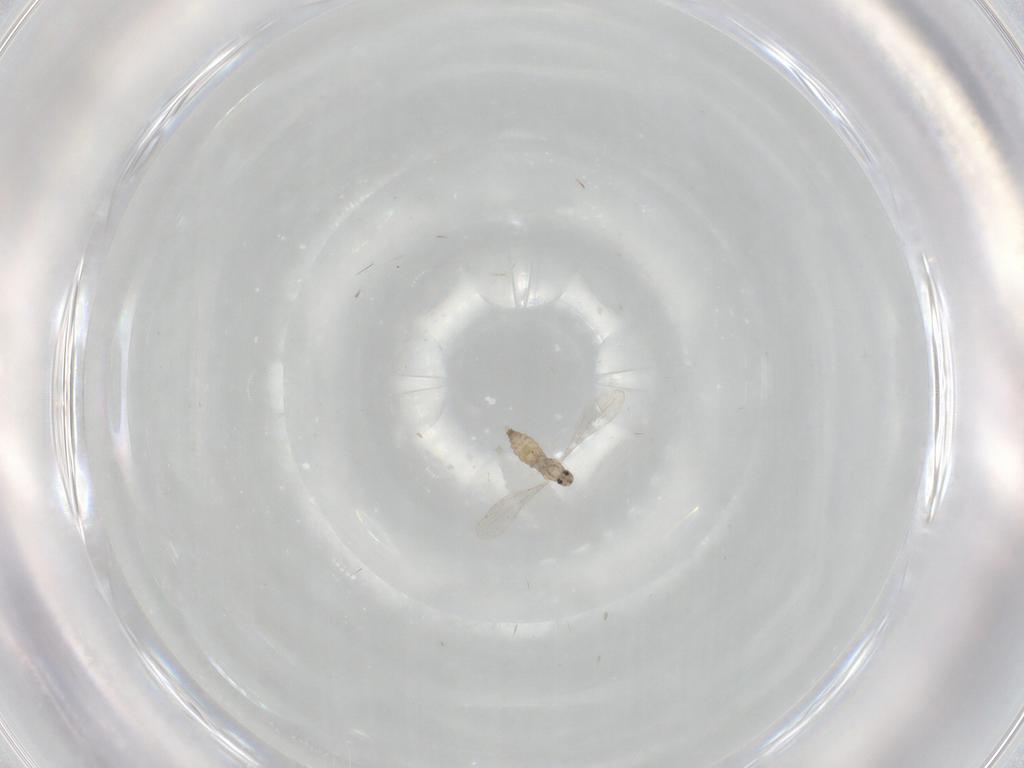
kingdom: Animalia
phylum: Arthropoda
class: Insecta
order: Diptera
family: Cecidomyiidae
